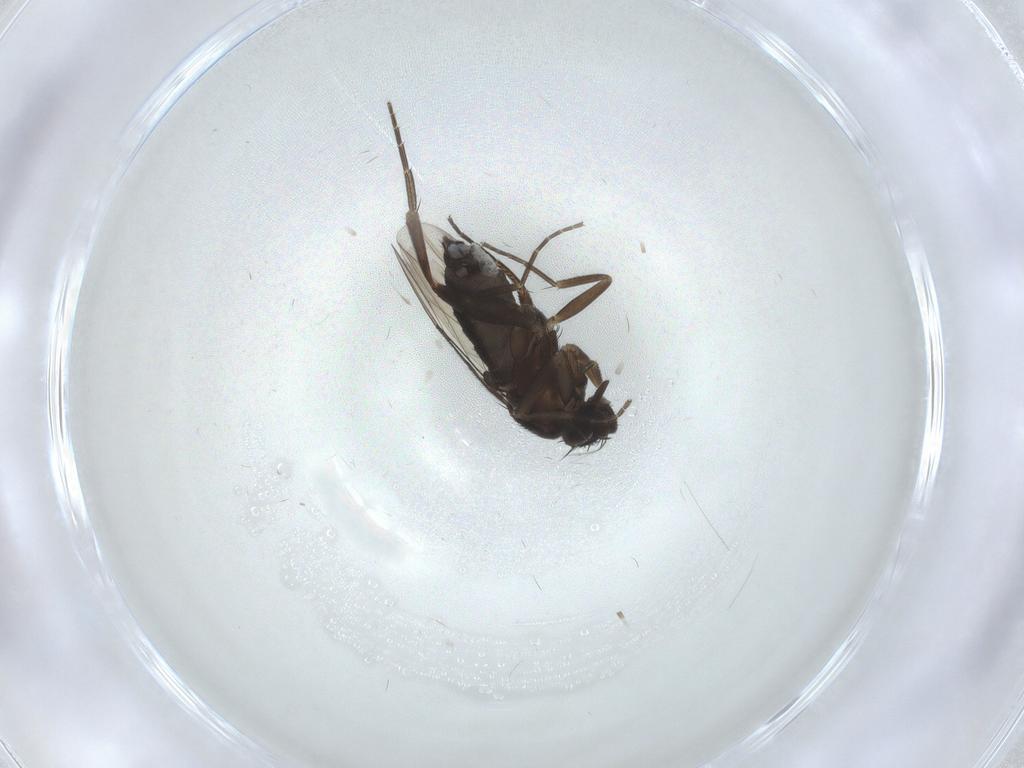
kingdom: Animalia
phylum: Arthropoda
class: Insecta
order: Diptera
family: Phoridae
